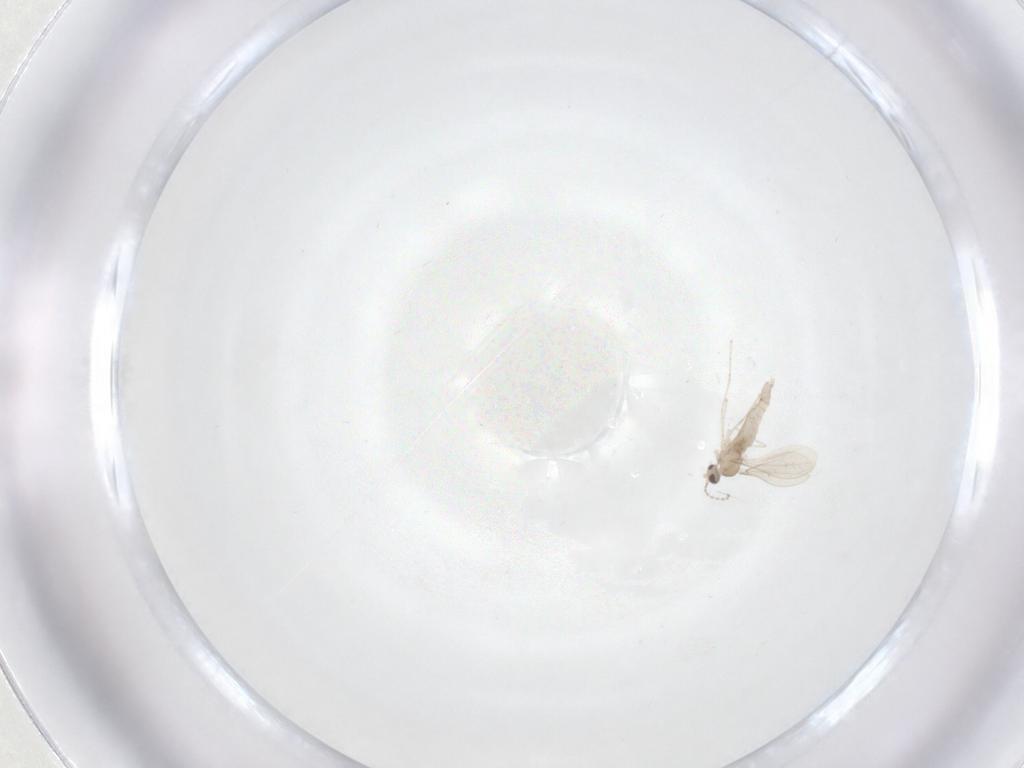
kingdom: Animalia
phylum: Arthropoda
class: Insecta
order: Diptera
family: Cecidomyiidae
